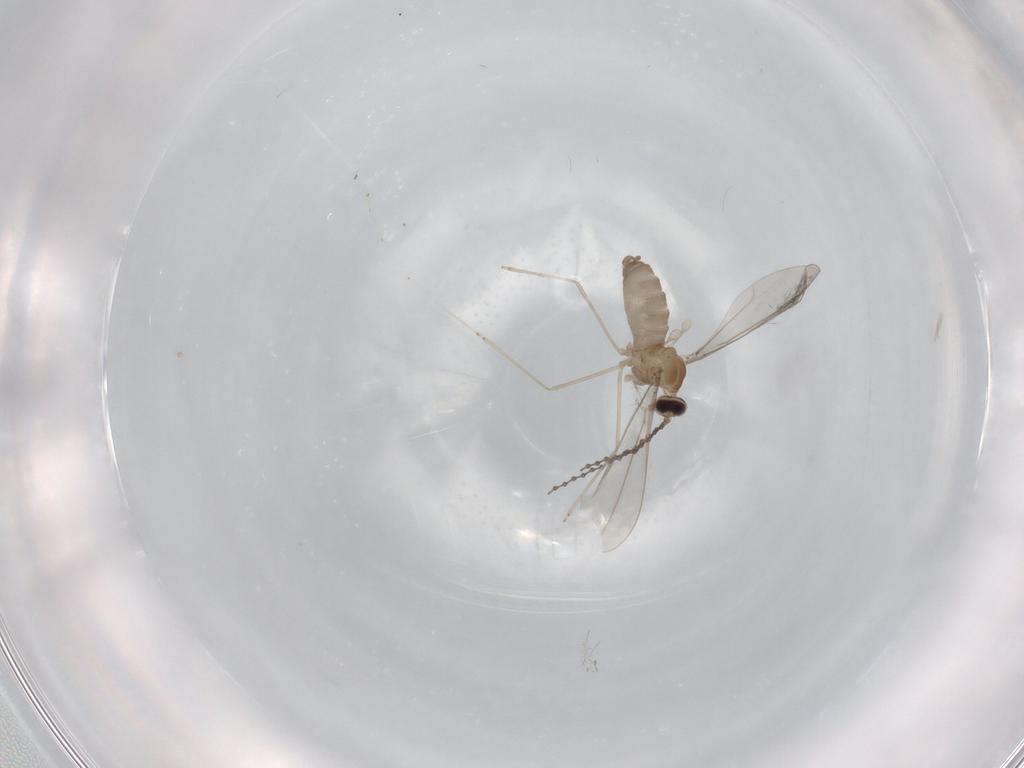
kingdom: Animalia
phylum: Arthropoda
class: Insecta
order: Diptera
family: Cecidomyiidae
